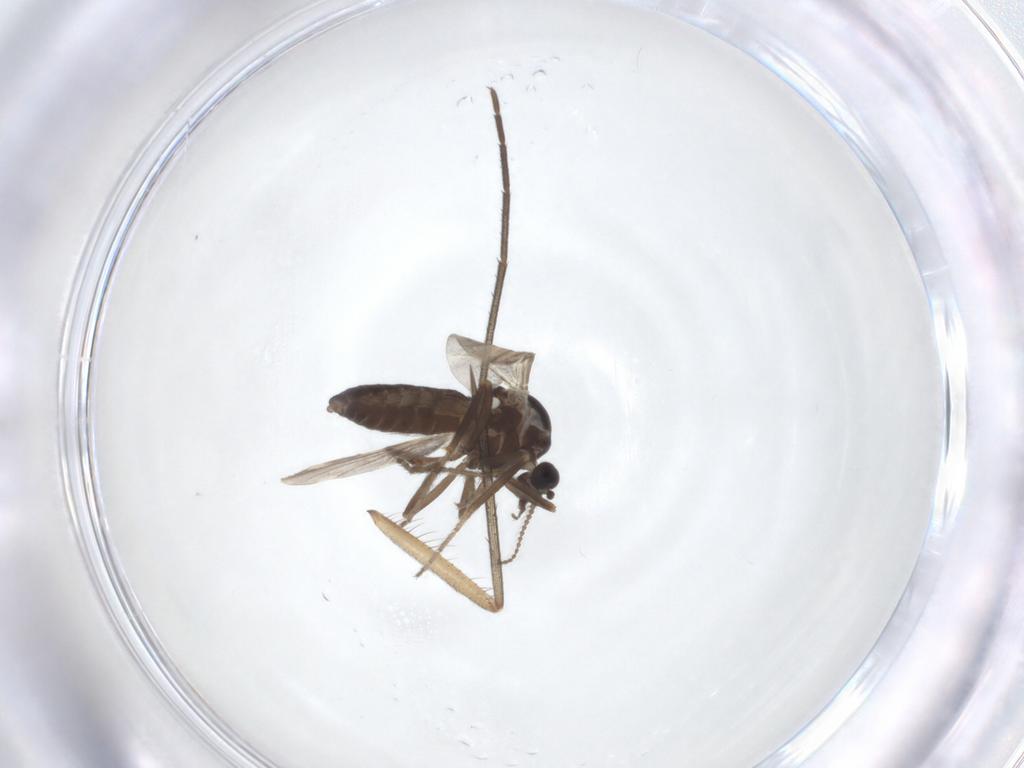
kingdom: Animalia
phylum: Arthropoda
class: Insecta
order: Diptera
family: Ceratopogonidae
